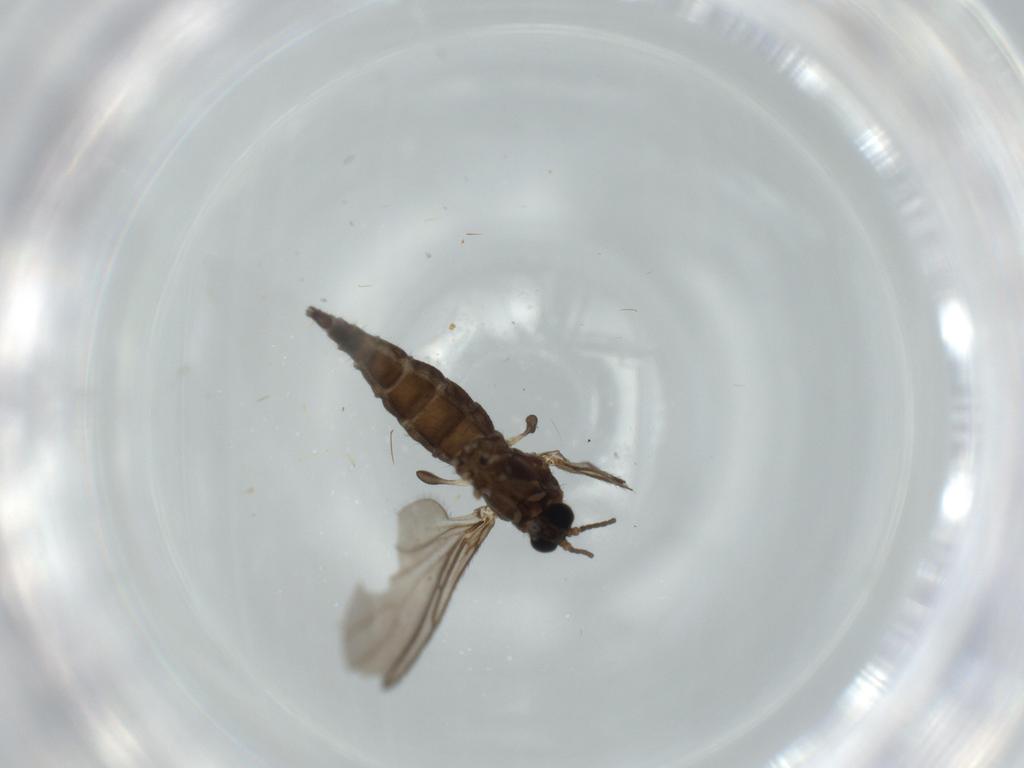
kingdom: Animalia
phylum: Arthropoda
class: Insecta
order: Diptera
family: Sciaridae
